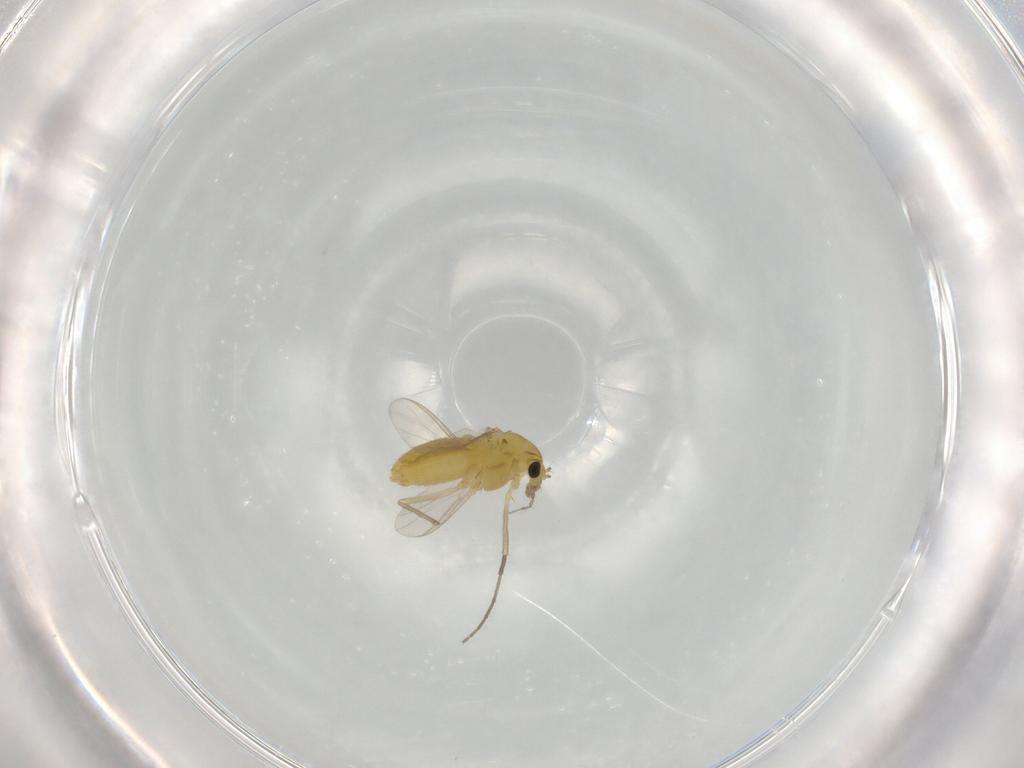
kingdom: Animalia
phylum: Arthropoda
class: Insecta
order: Diptera
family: Chironomidae
